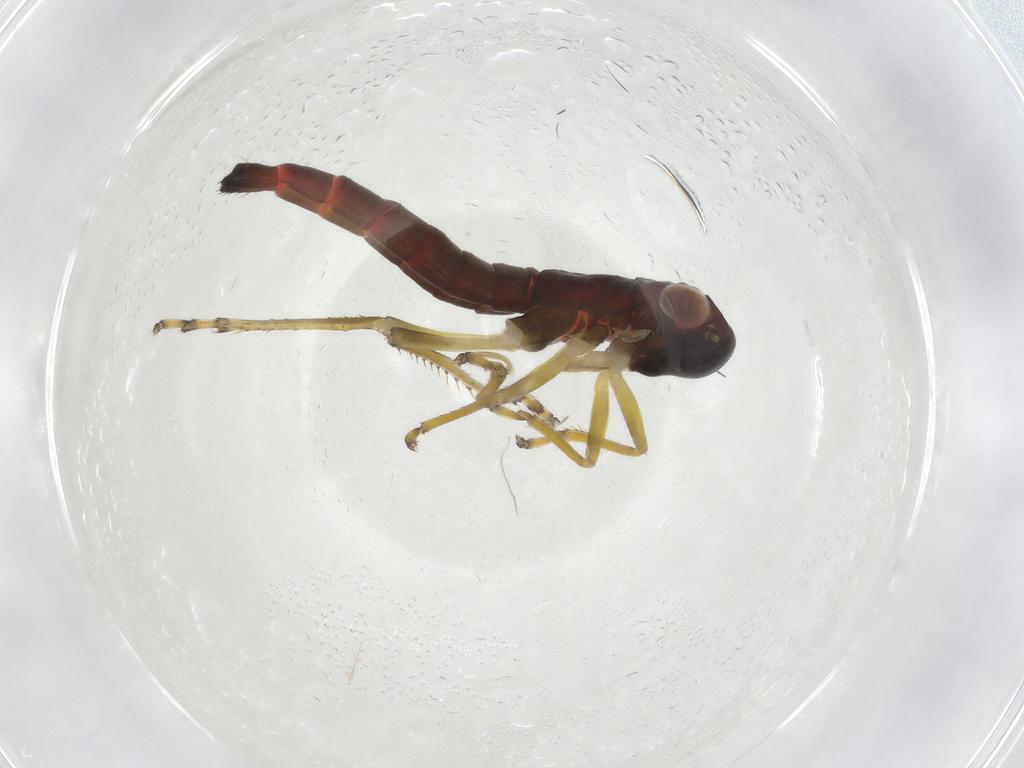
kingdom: Animalia
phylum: Arthropoda
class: Insecta
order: Hemiptera
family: Cicadellidae
